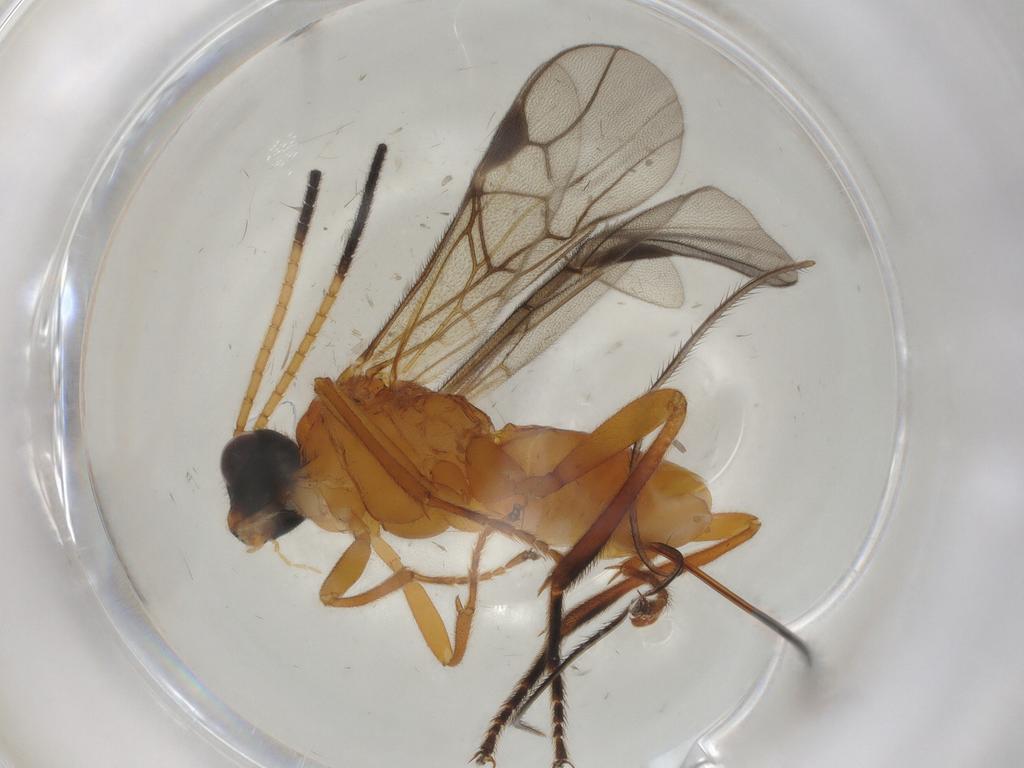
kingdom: Animalia
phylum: Arthropoda
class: Insecta
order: Hymenoptera
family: Braconidae
